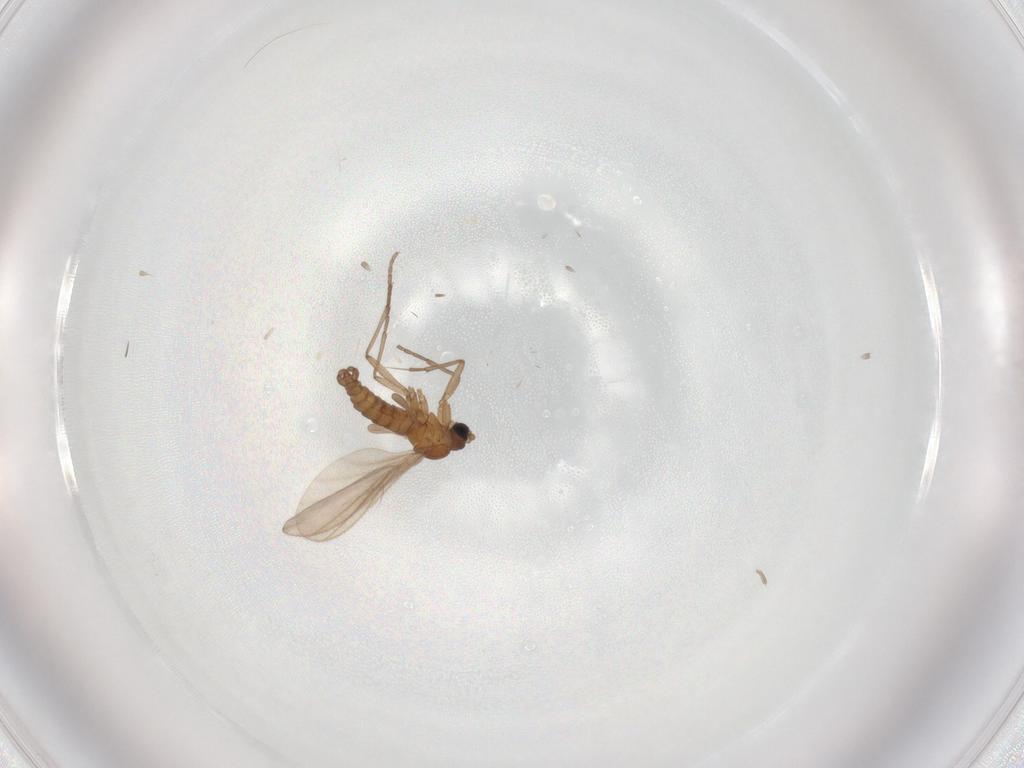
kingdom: Animalia
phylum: Arthropoda
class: Insecta
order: Diptera
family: Sciaridae
